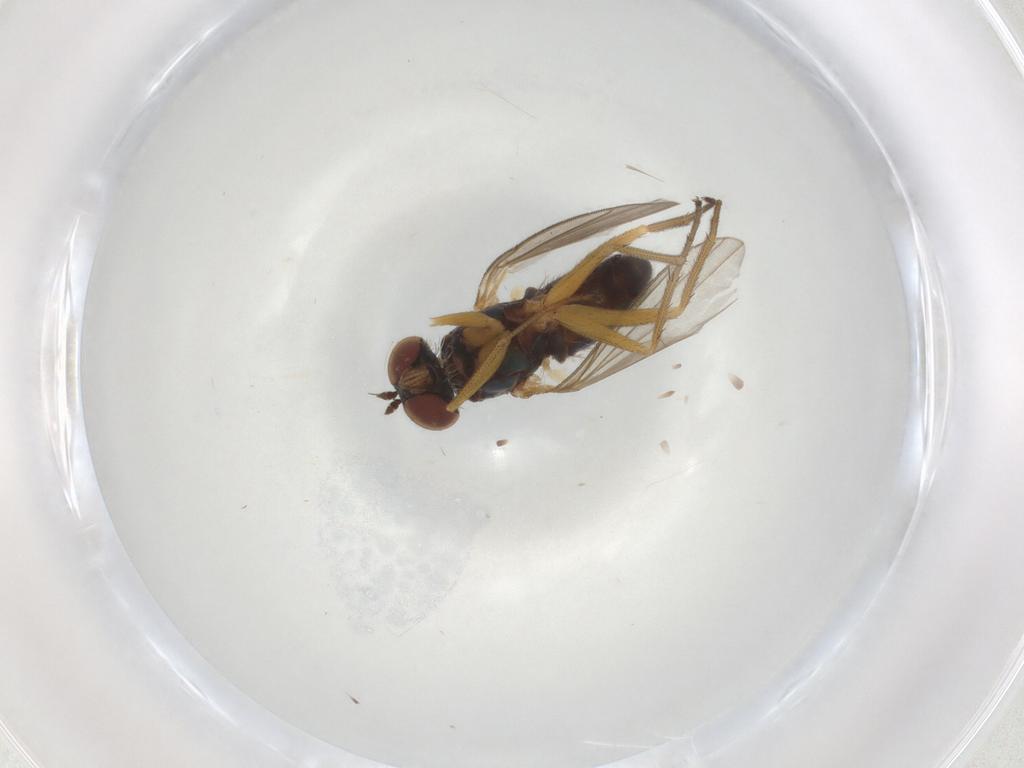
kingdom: Animalia
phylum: Arthropoda
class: Insecta
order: Diptera
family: Dolichopodidae
